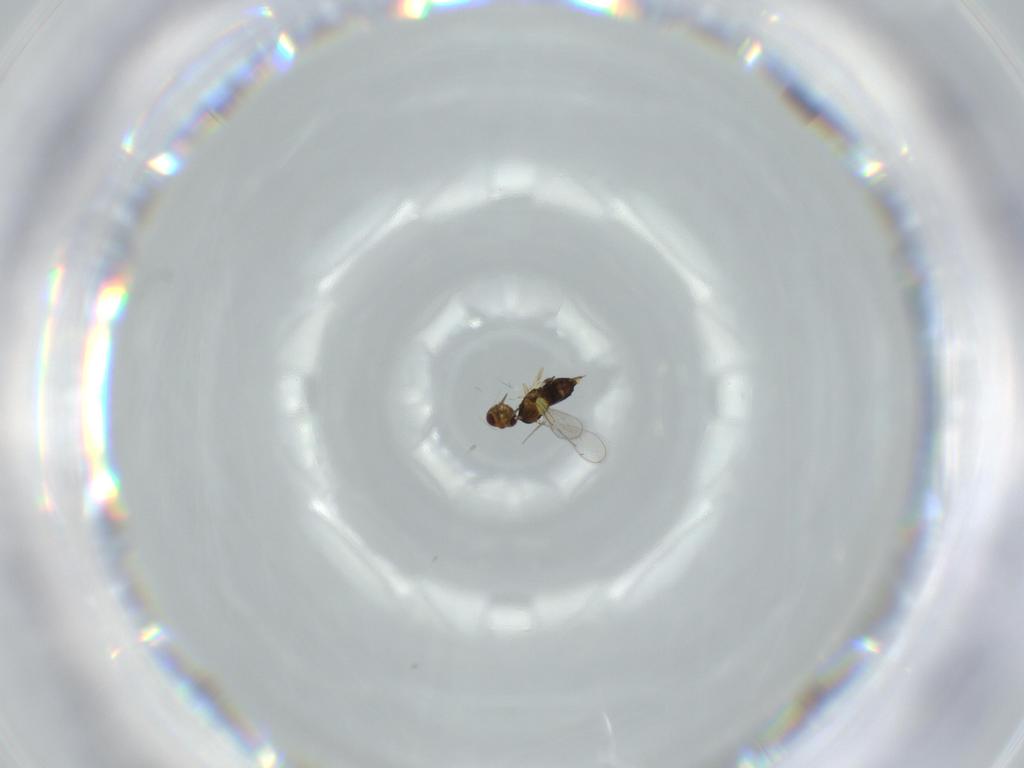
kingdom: Animalia
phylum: Arthropoda
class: Insecta
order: Hymenoptera
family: Aphelinidae
